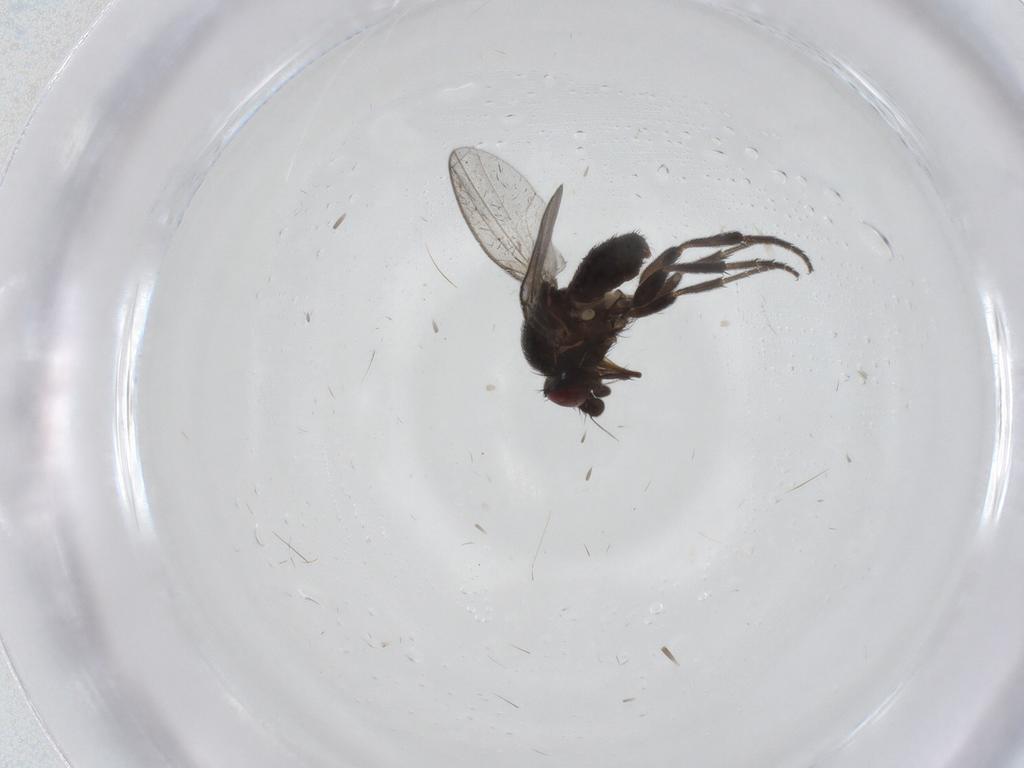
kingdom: Animalia
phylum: Arthropoda
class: Insecta
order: Diptera
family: Milichiidae
